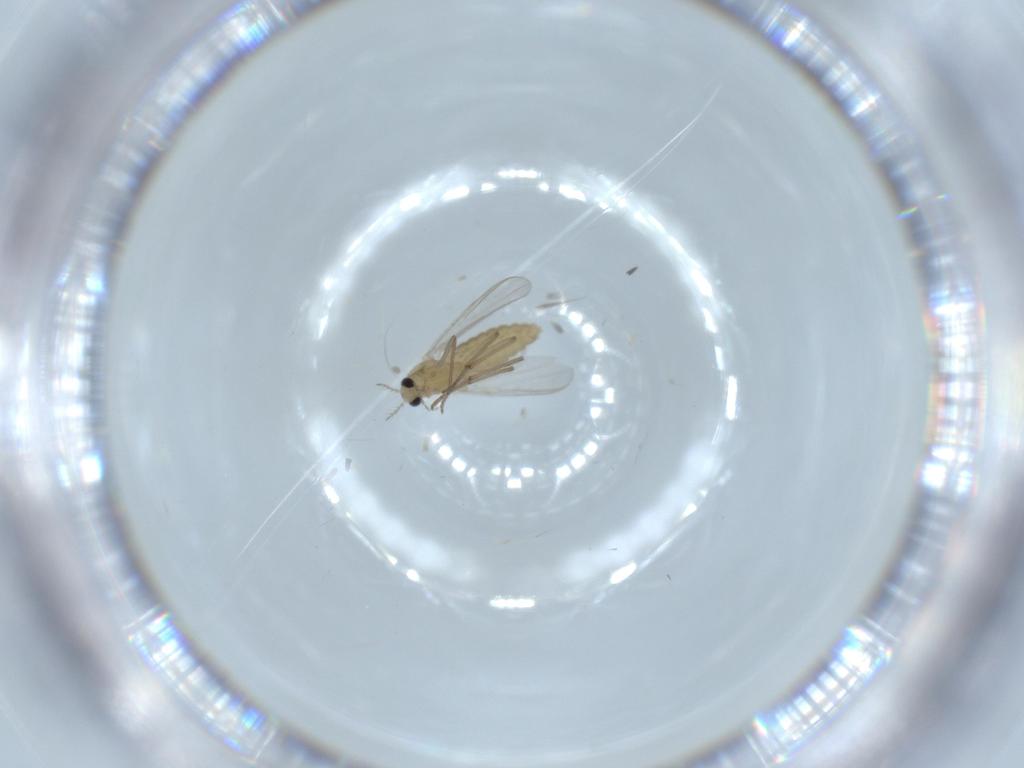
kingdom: Animalia
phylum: Arthropoda
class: Insecta
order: Diptera
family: Chironomidae
